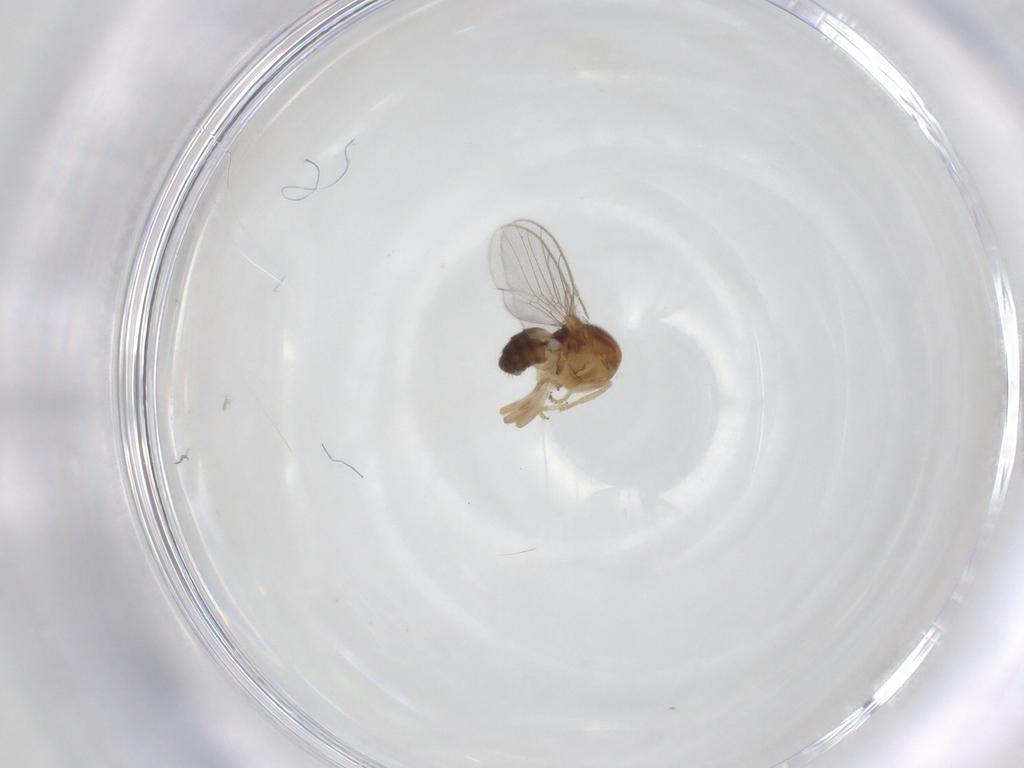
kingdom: Animalia
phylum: Arthropoda
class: Insecta
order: Diptera
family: Chloropidae
